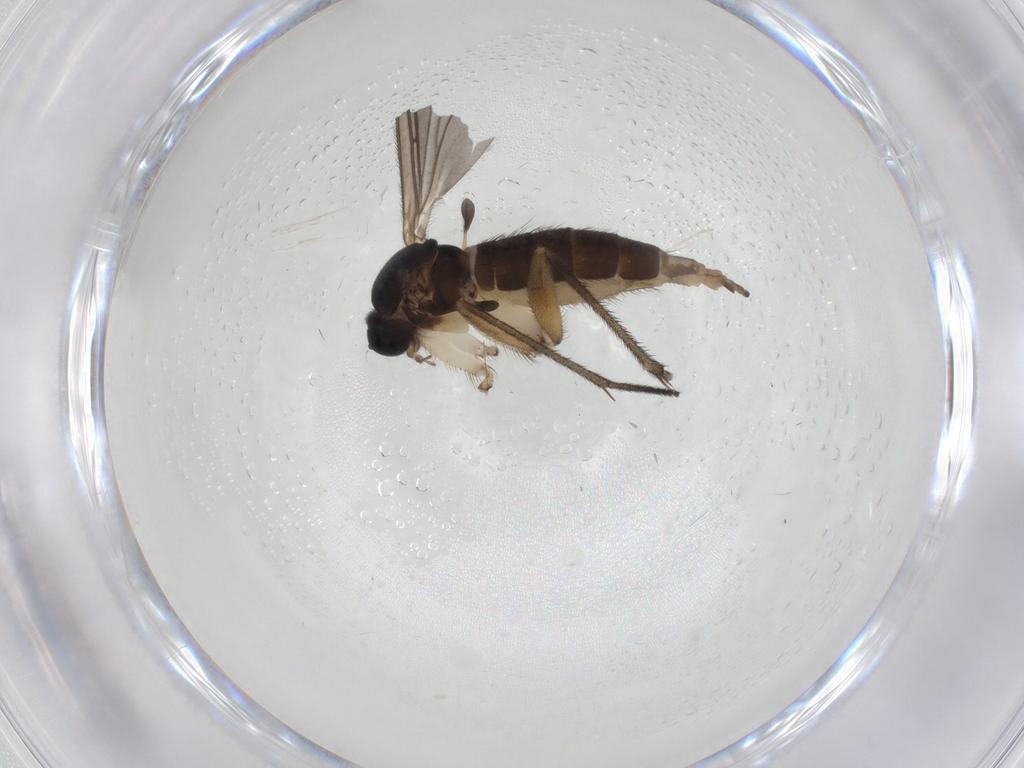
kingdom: Animalia
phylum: Arthropoda
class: Insecta
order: Diptera
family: Sciaridae
